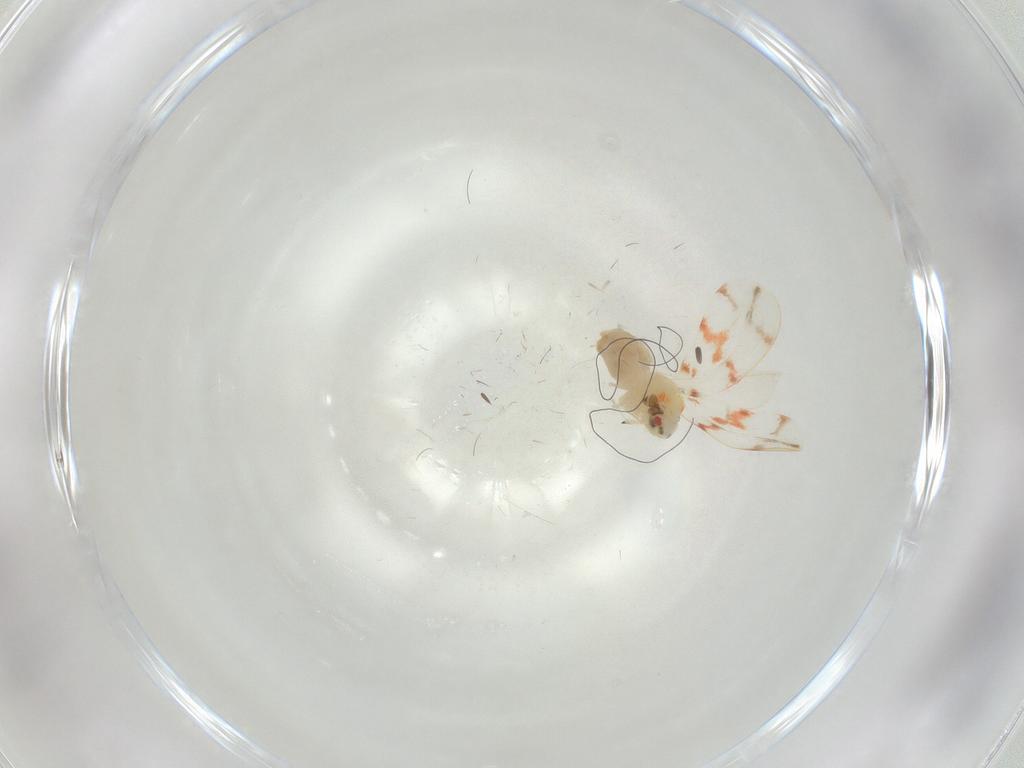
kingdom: Animalia
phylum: Arthropoda
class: Insecta
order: Hemiptera
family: Aleyrodidae
